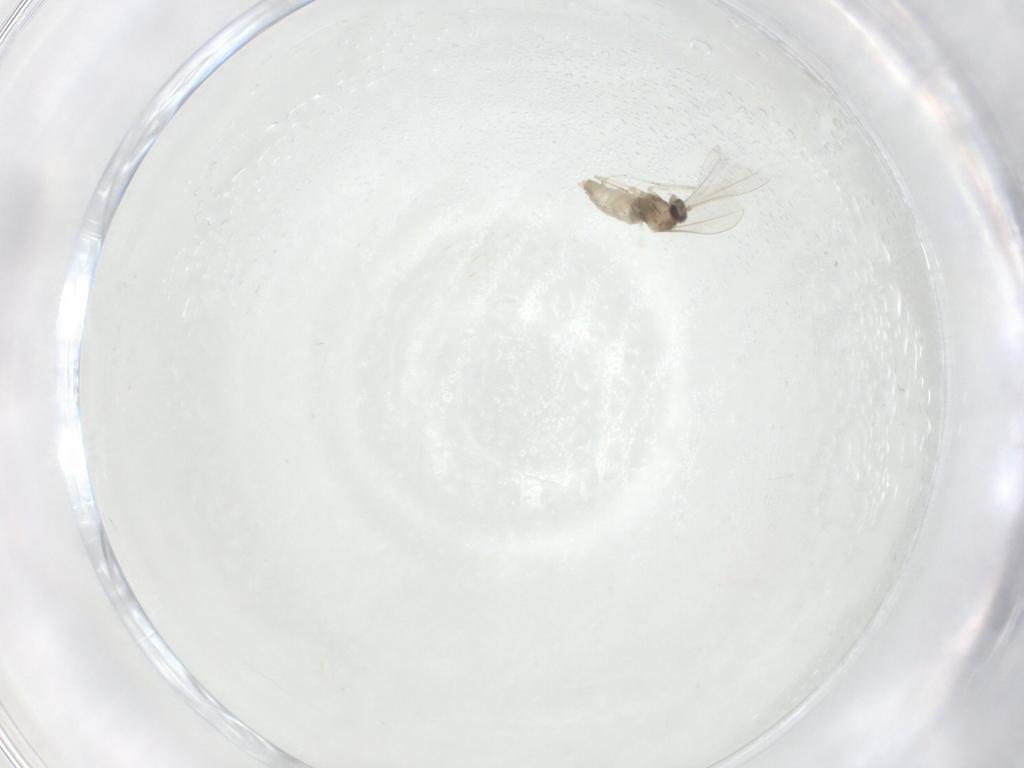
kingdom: Animalia
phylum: Arthropoda
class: Insecta
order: Diptera
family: Cecidomyiidae
